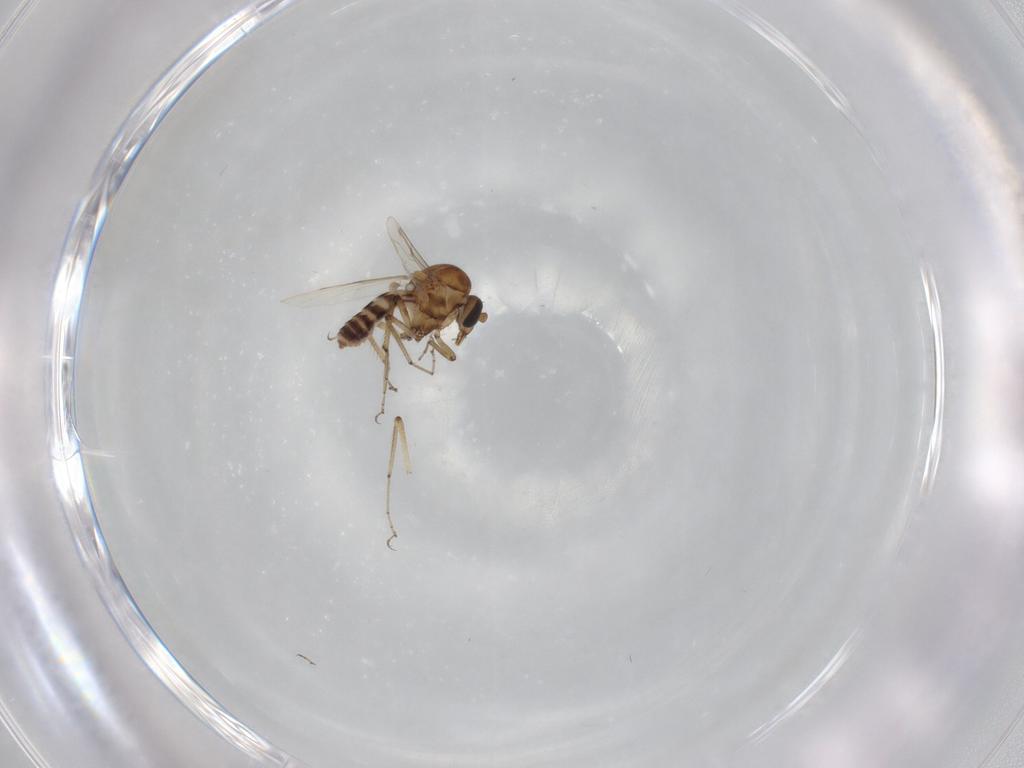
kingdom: Animalia
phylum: Arthropoda
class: Insecta
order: Diptera
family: Ceratopogonidae
